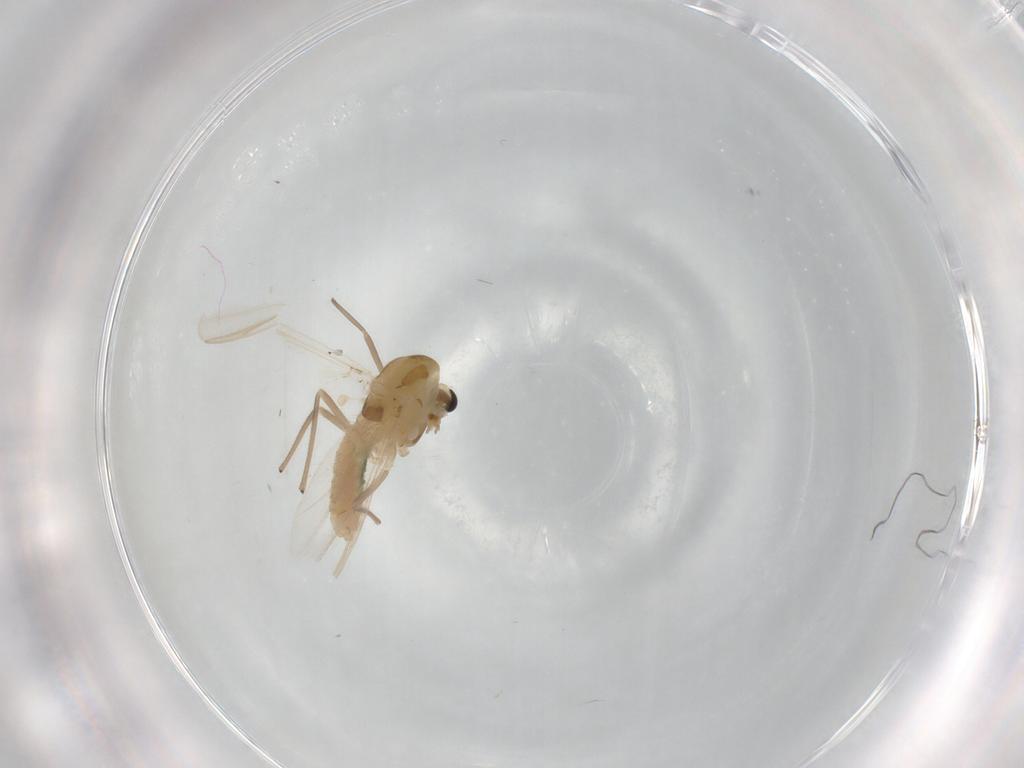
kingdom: Animalia
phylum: Arthropoda
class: Insecta
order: Diptera
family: Chironomidae
